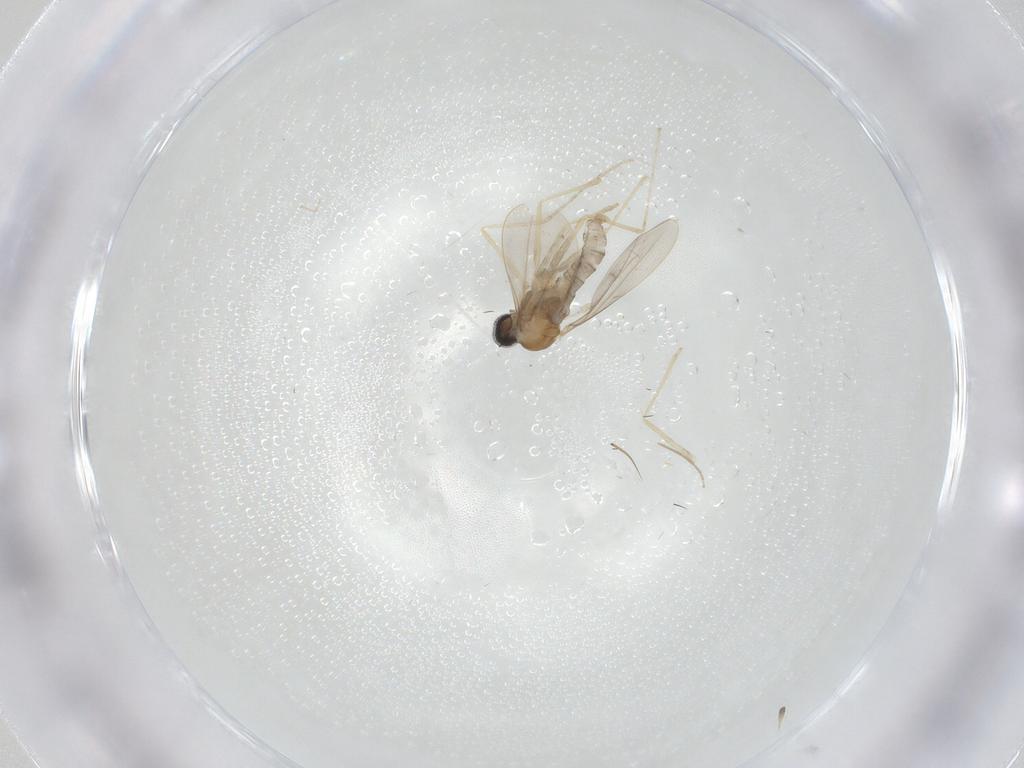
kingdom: Animalia
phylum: Arthropoda
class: Insecta
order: Diptera
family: Cecidomyiidae
